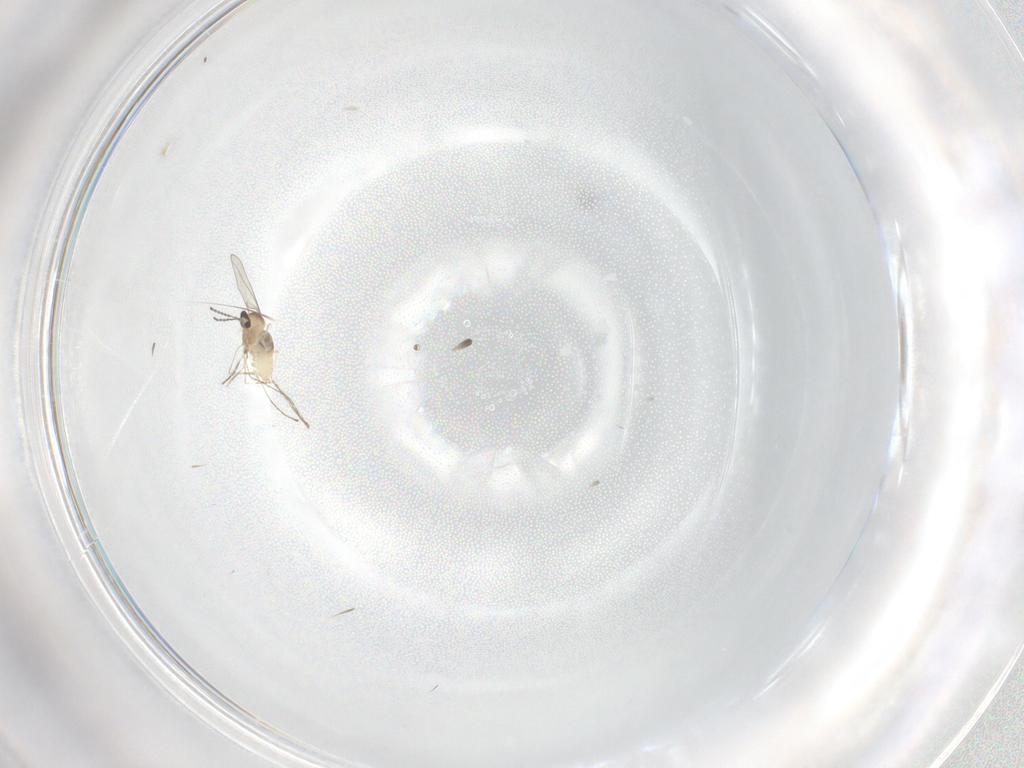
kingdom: Animalia
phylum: Arthropoda
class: Insecta
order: Diptera
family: Cecidomyiidae
